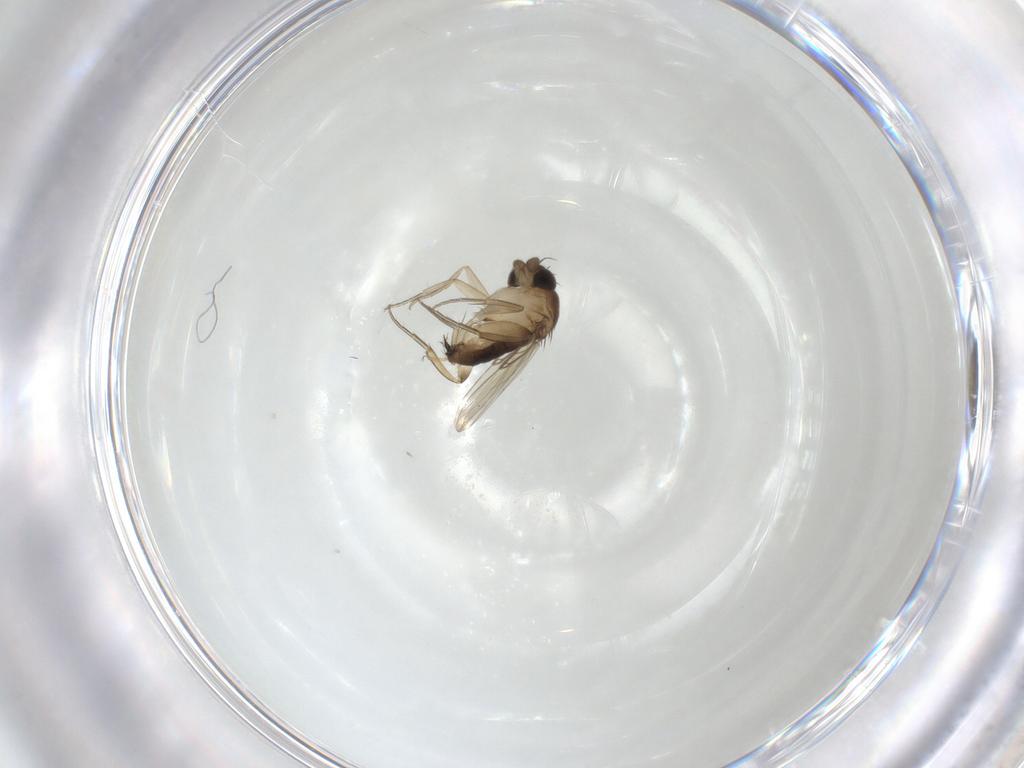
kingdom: Animalia
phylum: Arthropoda
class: Insecta
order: Diptera
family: Phoridae
